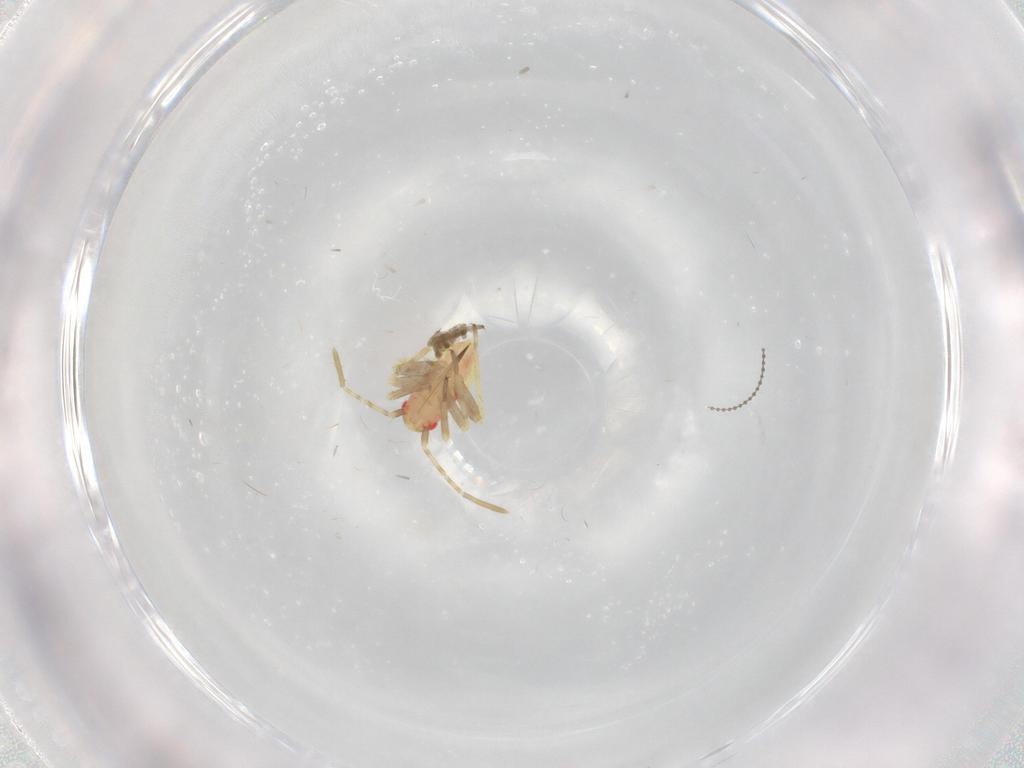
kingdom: Animalia
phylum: Arthropoda
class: Insecta
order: Hemiptera
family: Miridae
